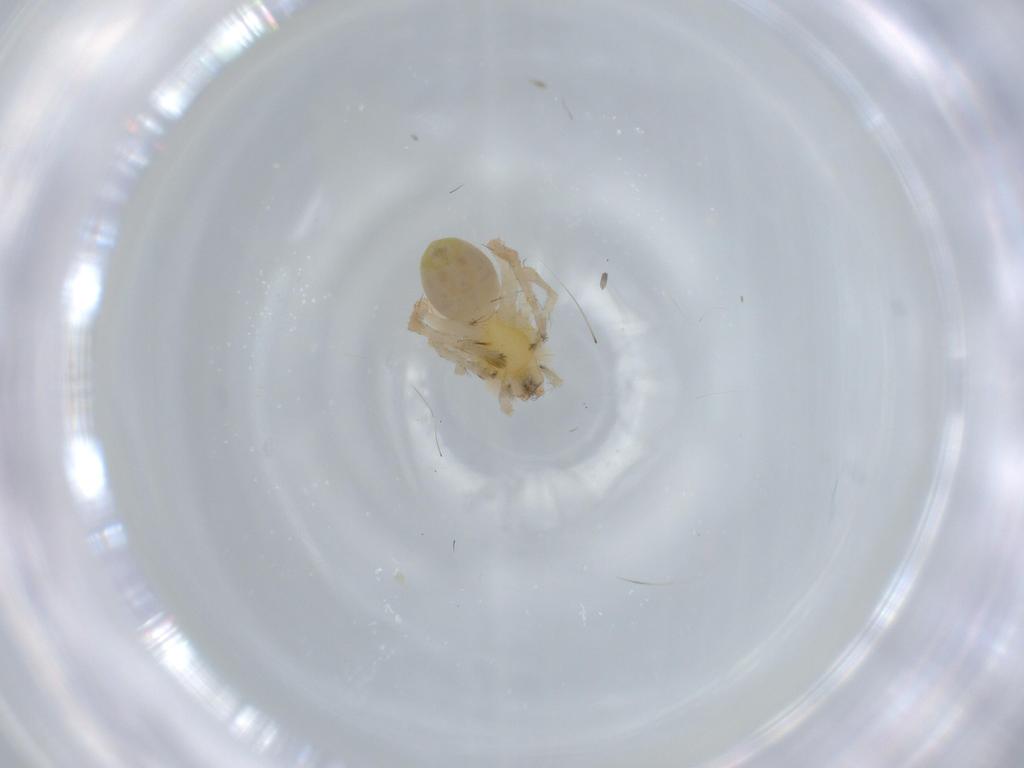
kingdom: Animalia
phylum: Arthropoda
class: Arachnida
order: Araneae
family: Anyphaenidae
